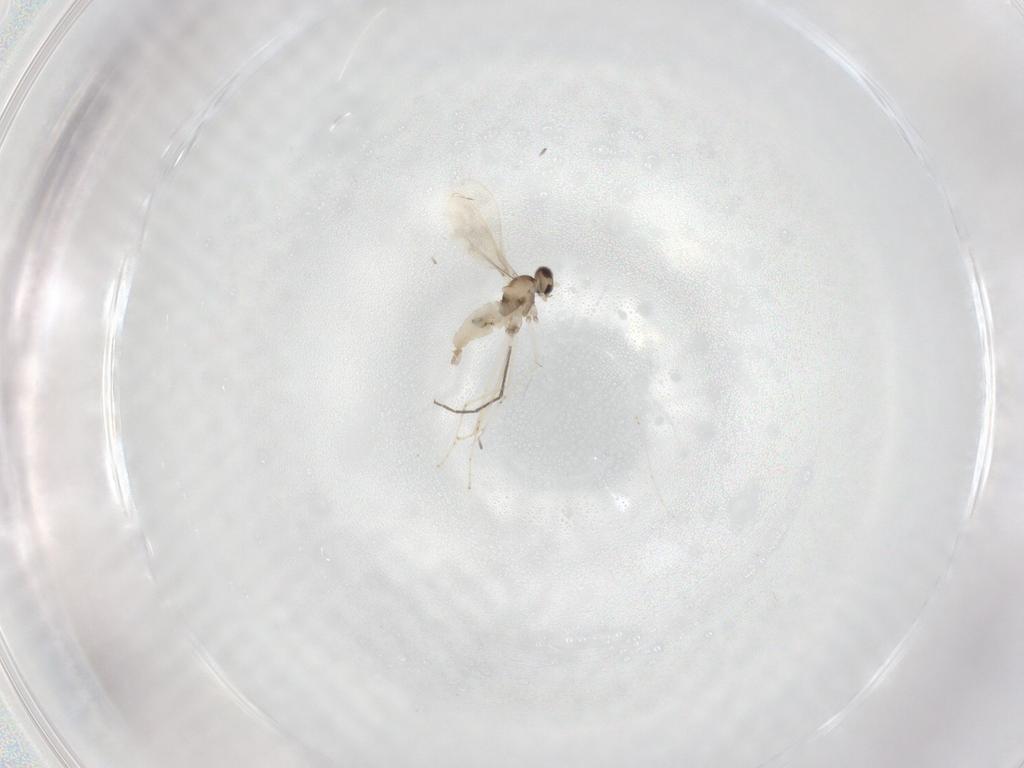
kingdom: Animalia
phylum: Arthropoda
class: Insecta
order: Diptera
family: Cecidomyiidae
